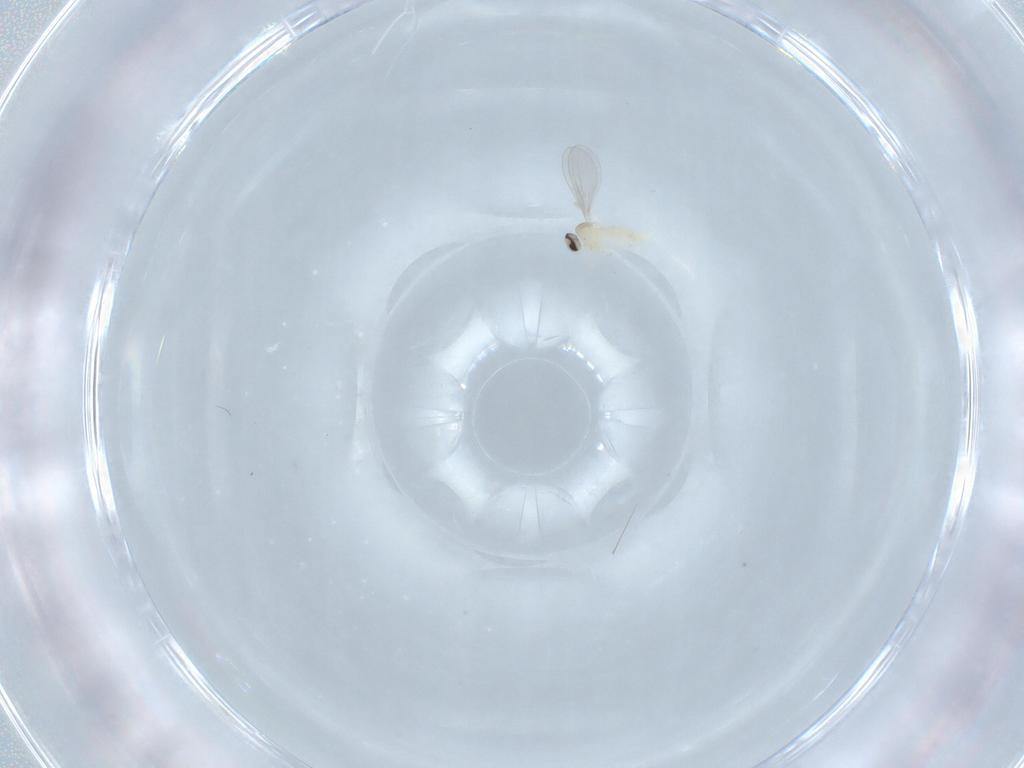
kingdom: Animalia
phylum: Arthropoda
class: Insecta
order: Diptera
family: Cecidomyiidae
